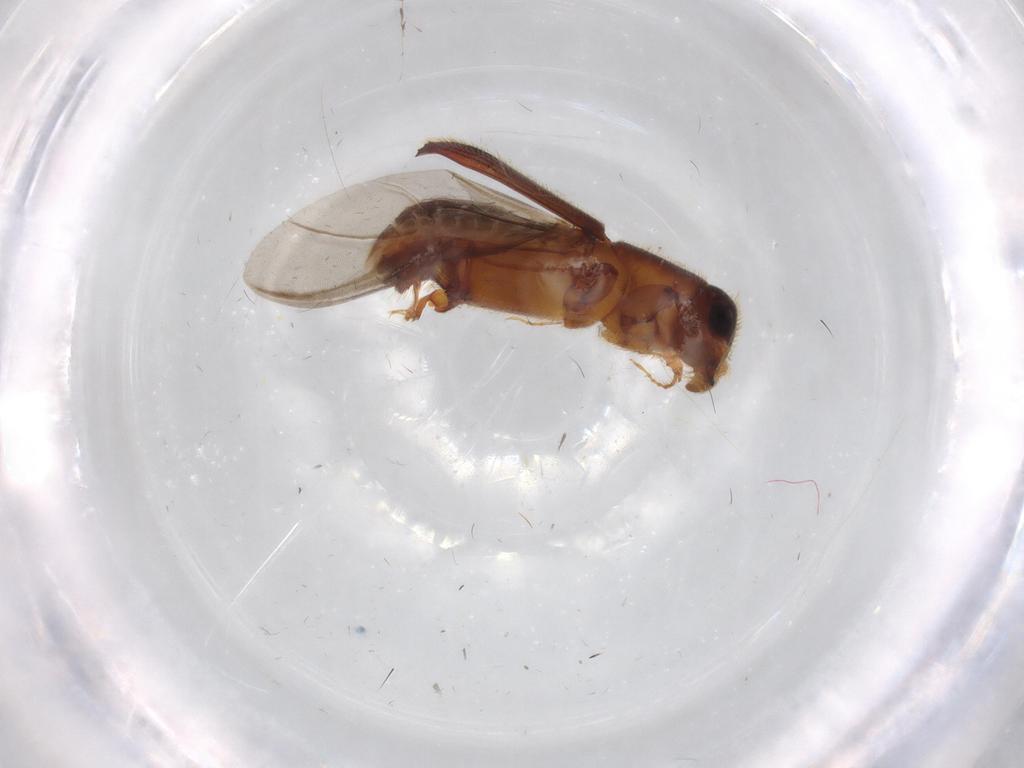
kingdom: Animalia
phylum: Arthropoda
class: Insecta
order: Coleoptera
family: Curculionidae
